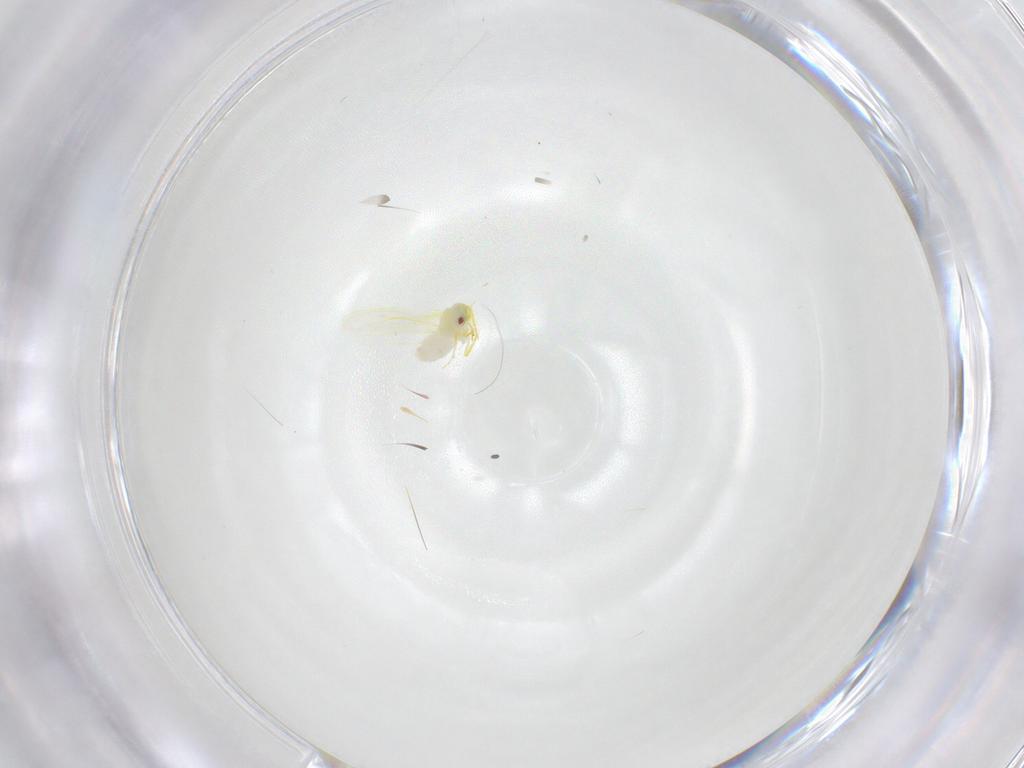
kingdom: Animalia
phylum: Arthropoda
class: Insecta
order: Hemiptera
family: Aleyrodidae
